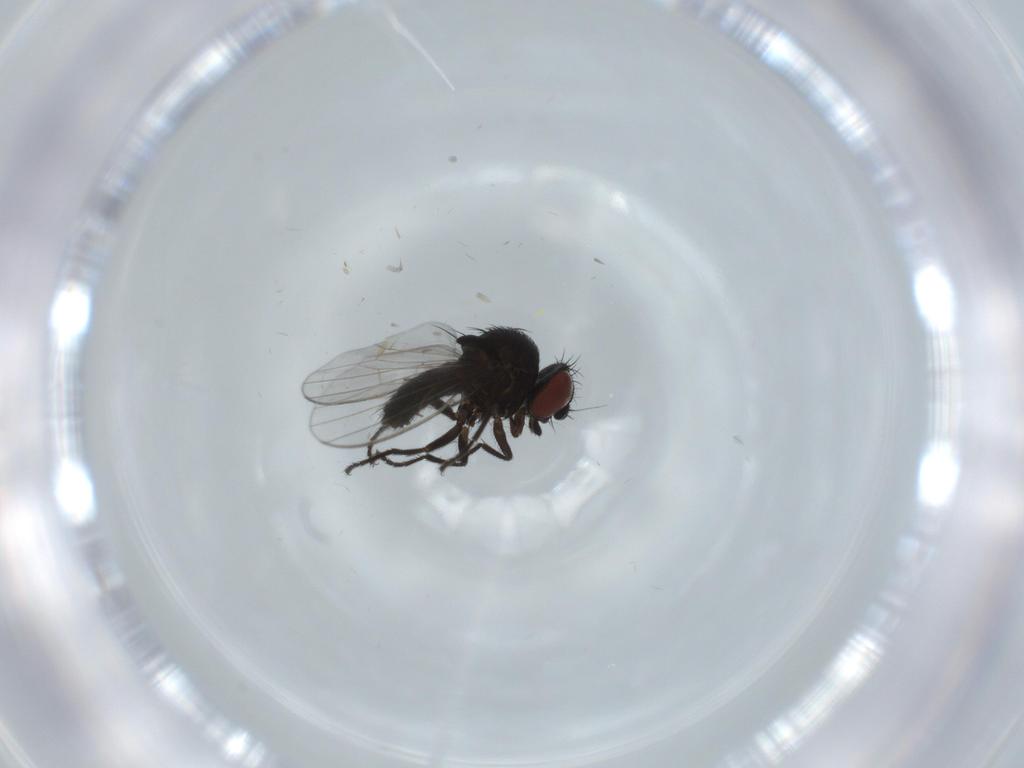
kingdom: Animalia
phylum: Arthropoda
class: Insecta
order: Diptera
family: Milichiidae
